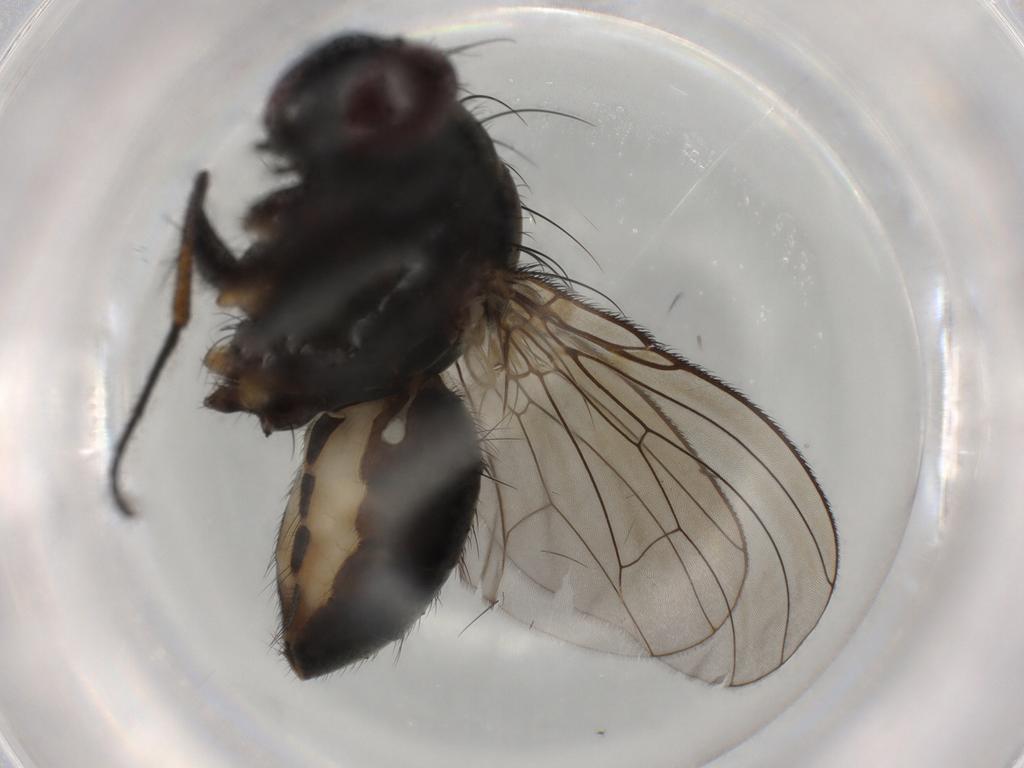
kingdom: Animalia
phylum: Arthropoda
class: Insecta
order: Diptera
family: Muscidae
